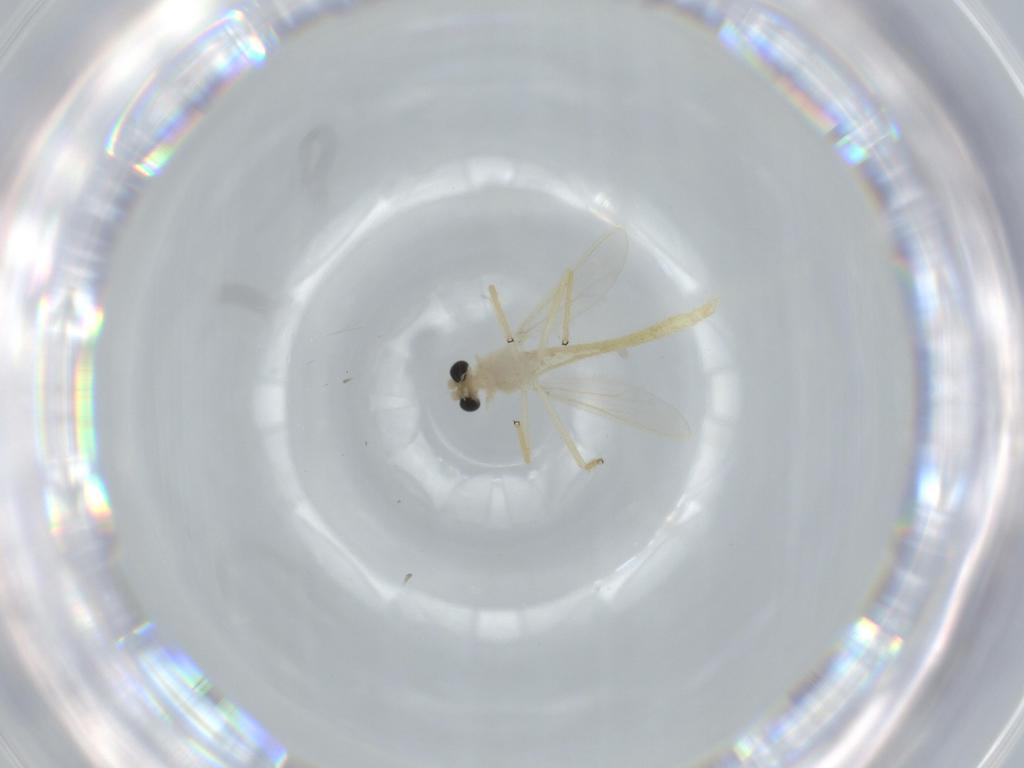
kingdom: Animalia
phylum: Arthropoda
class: Insecta
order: Diptera
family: Chironomidae
